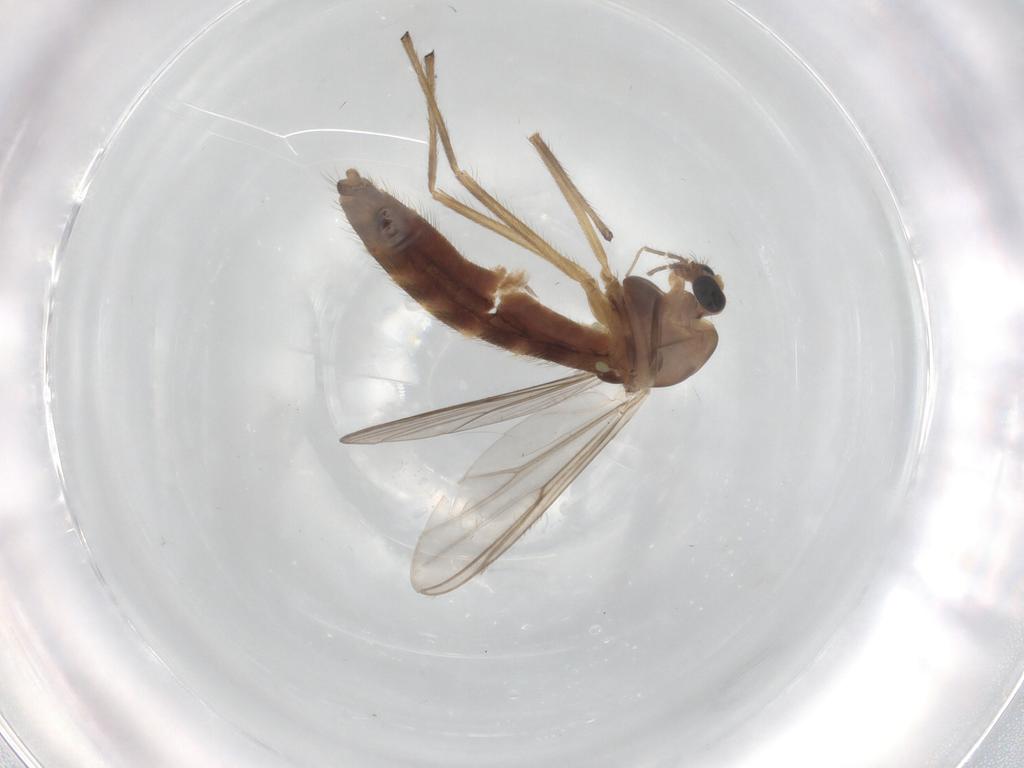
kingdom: Animalia
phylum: Arthropoda
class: Insecta
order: Diptera
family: Chironomidae
